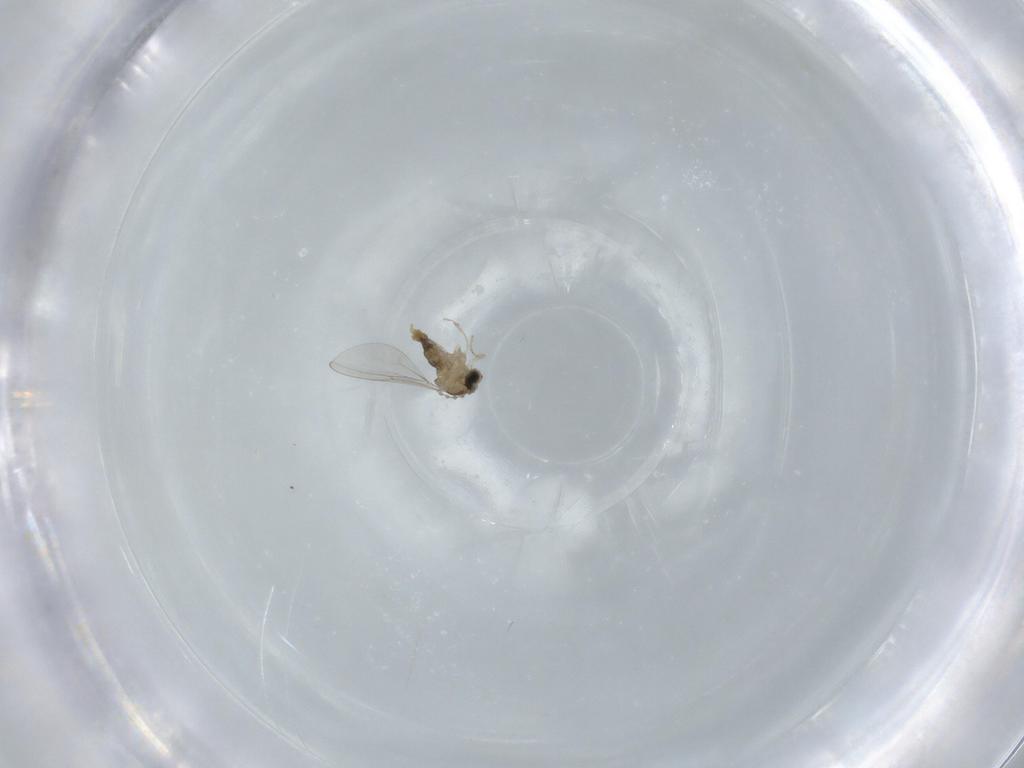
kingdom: Animalia
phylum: Arthropoda
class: Insecta
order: Diptera
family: Cecidomyiidae
